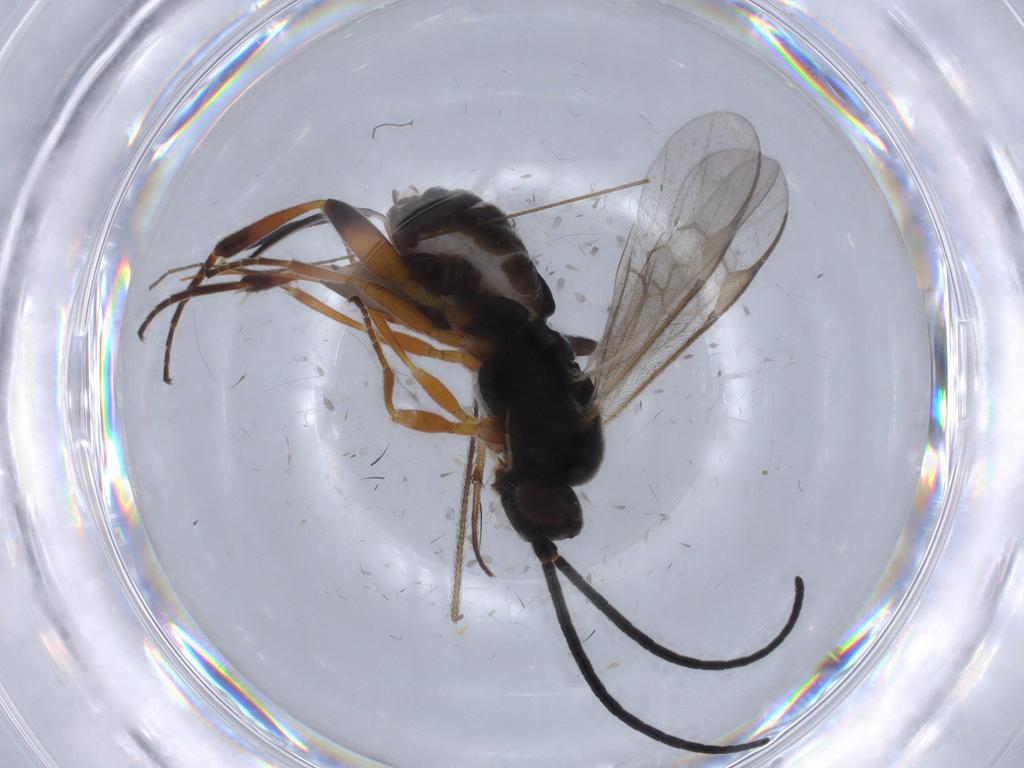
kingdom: Animalia
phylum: Arthropoda
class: Insecta
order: Hymenoptera
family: Braconidae
